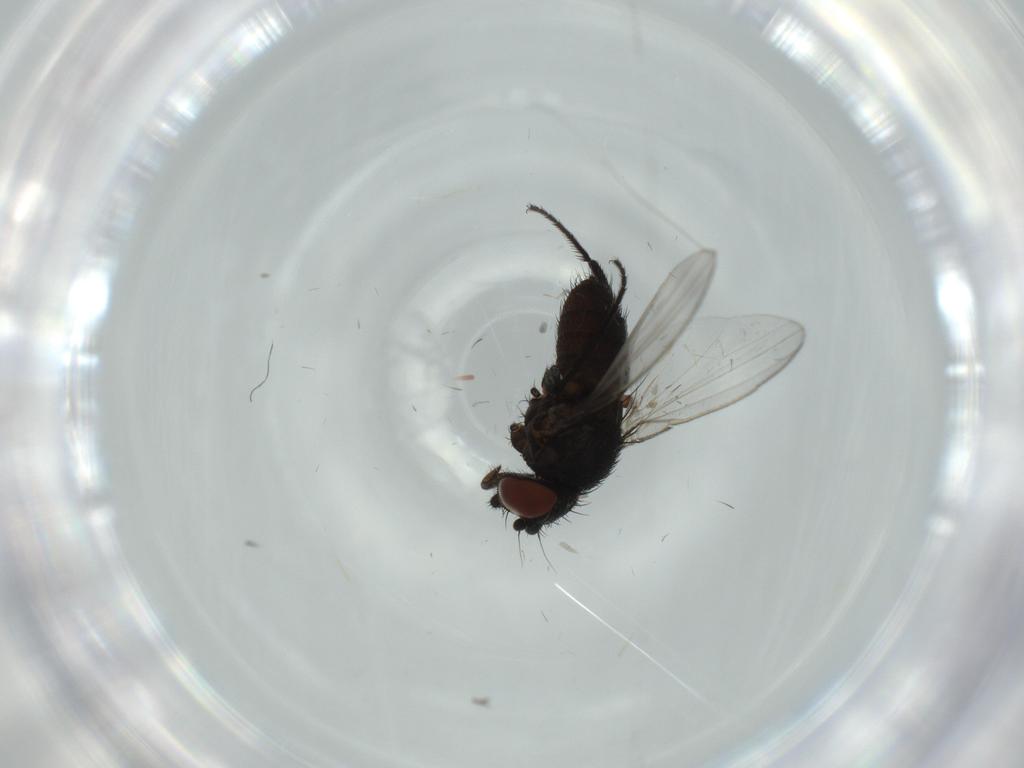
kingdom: Animalia
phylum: Arthropoda
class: Insecta
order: Diptera
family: Milichiidae
